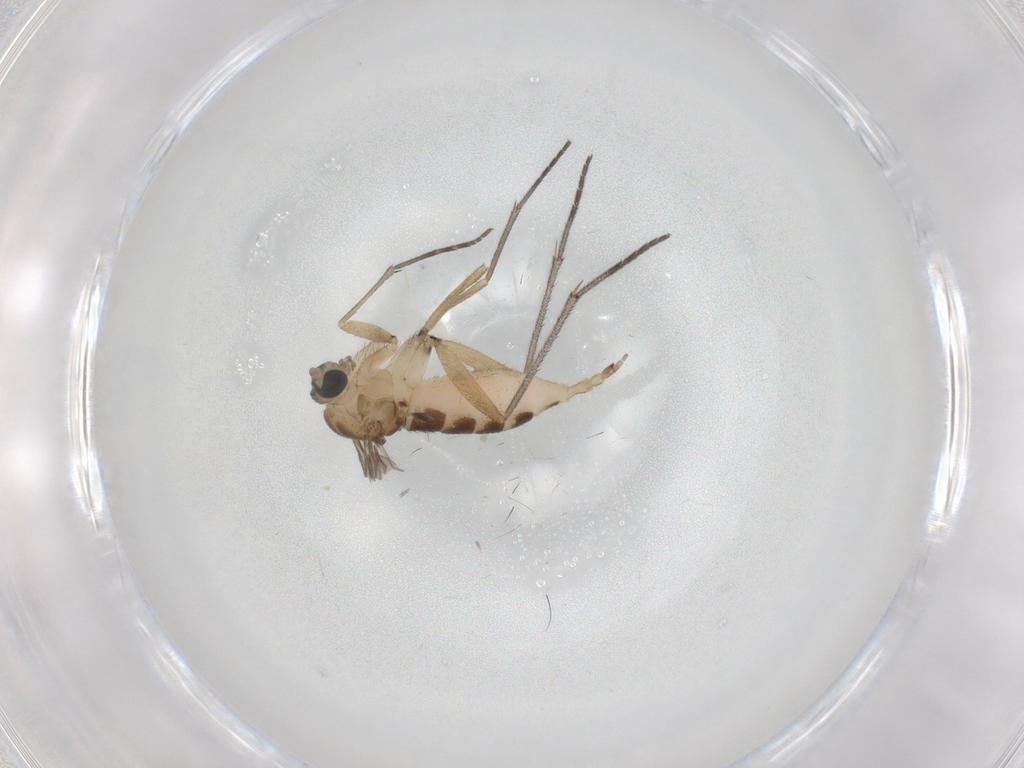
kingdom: Animalia
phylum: Arthropoda
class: Insecta
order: Diptera
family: Sciaridae
